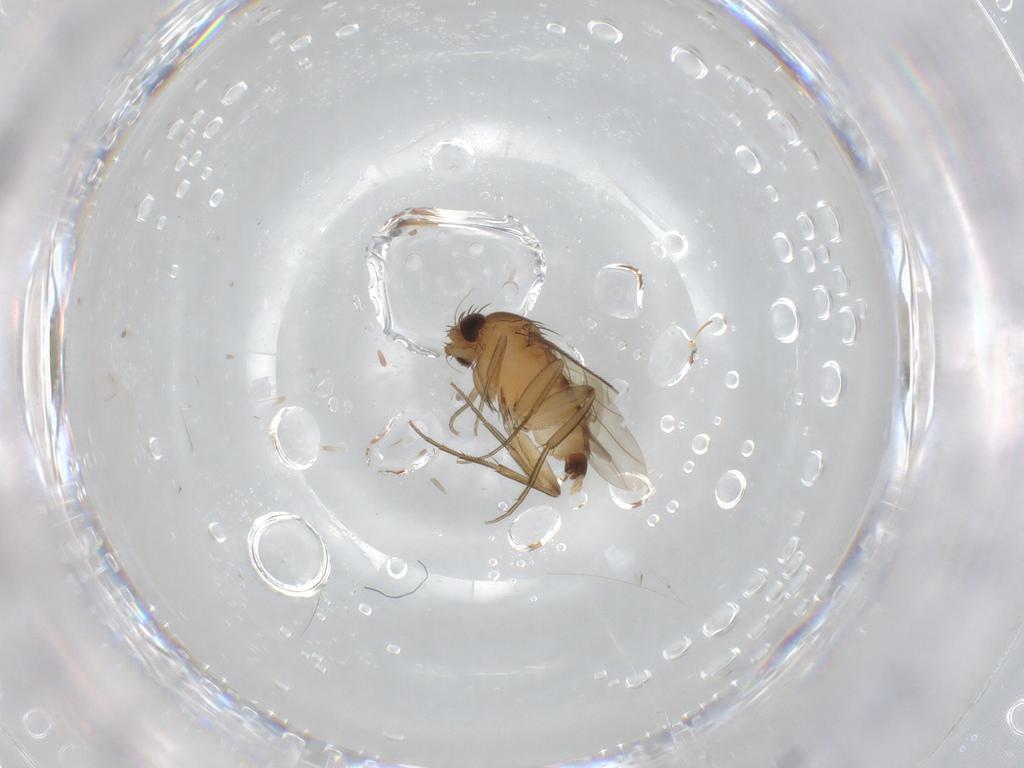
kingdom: Animalia
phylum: Arthropoda
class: Insecta
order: Diptera
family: Phoridae
